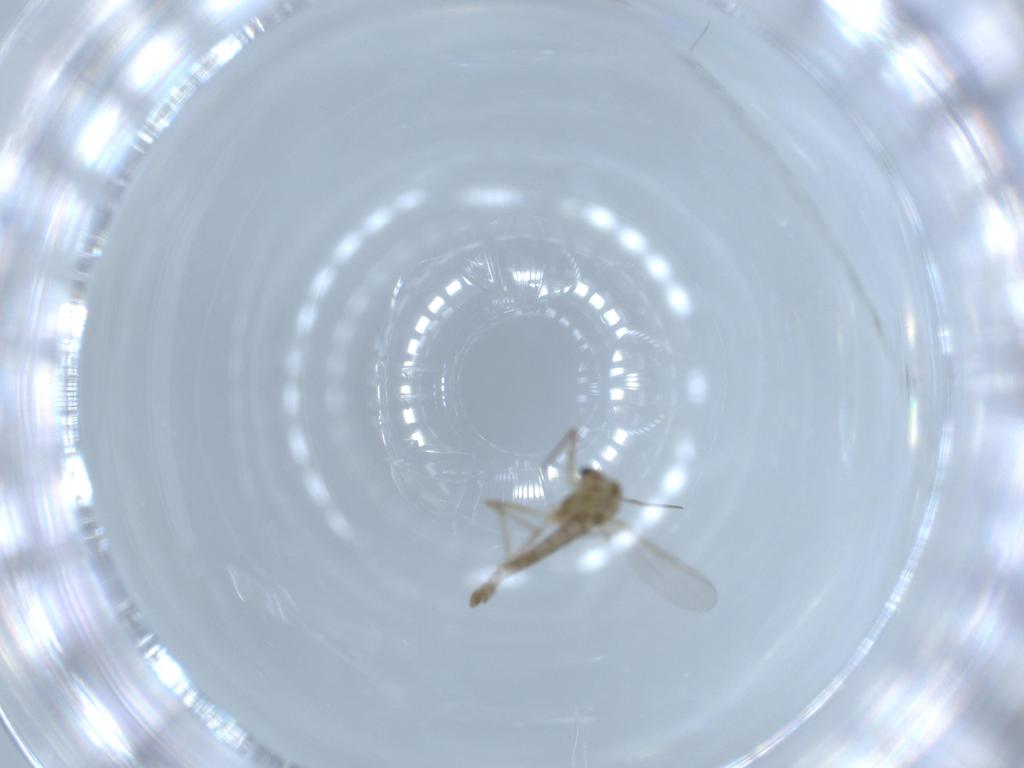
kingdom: Animalia
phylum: Arthropoda
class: Insecta
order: Diptera
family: Chironomidae
